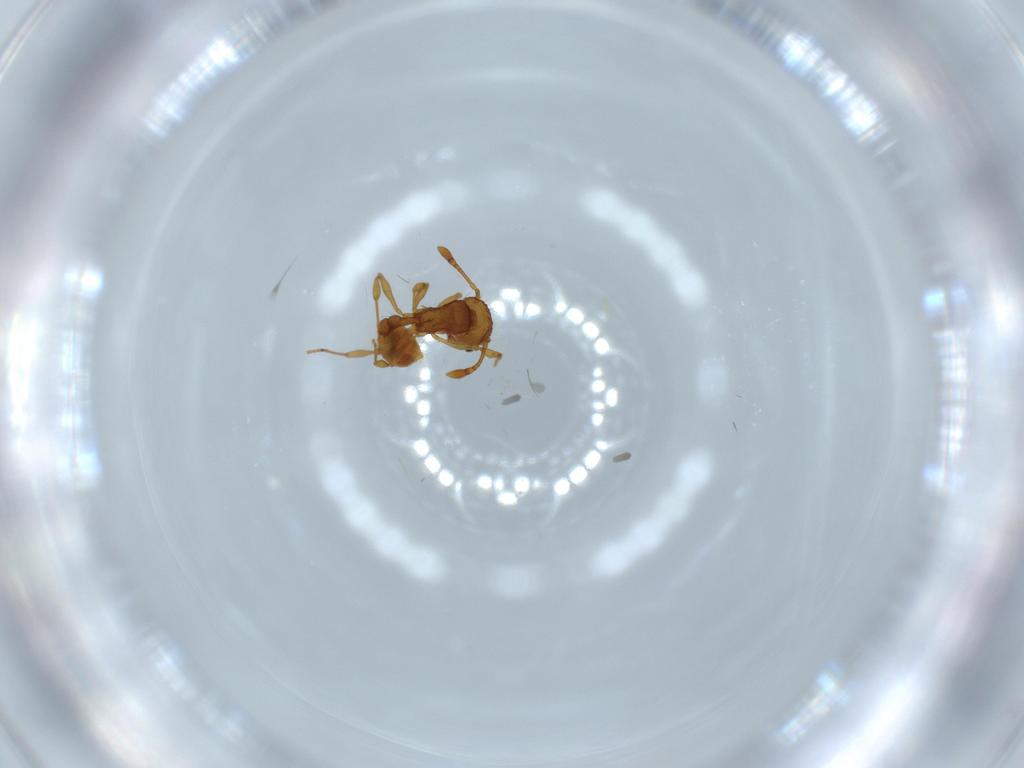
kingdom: Animalia
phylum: Arthropoda
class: Insecta
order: Hymenoptera
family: Formicidae
